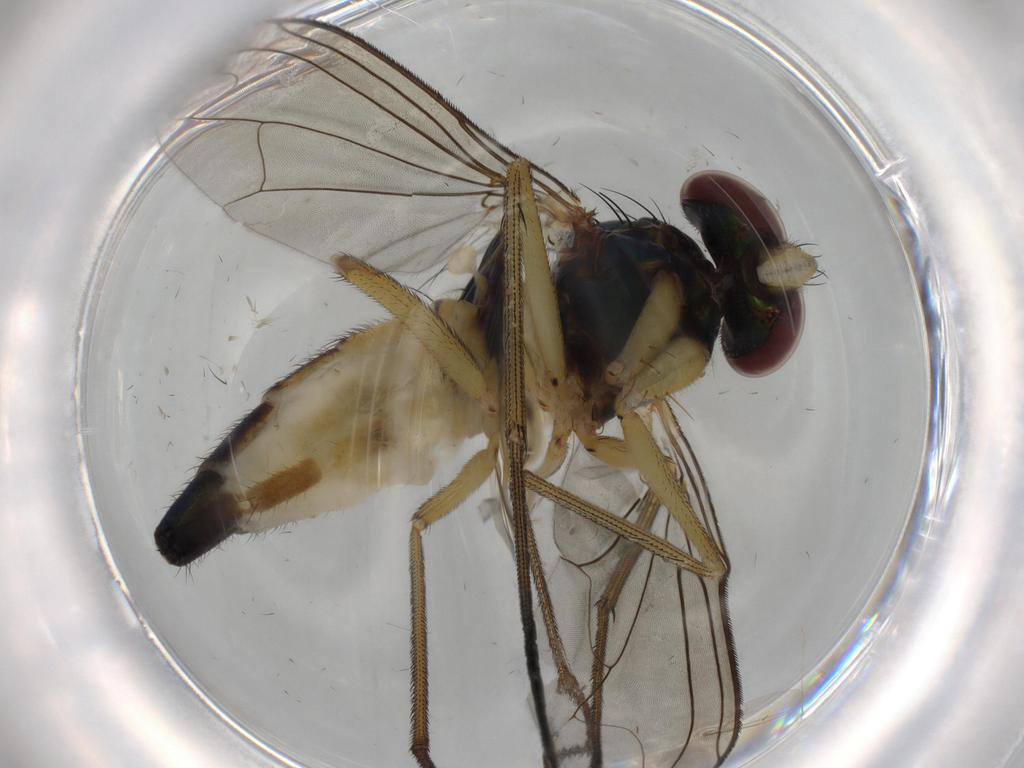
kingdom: Animalia
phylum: Arthropoda
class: Insecta
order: Diptera
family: Dolichopodidae
